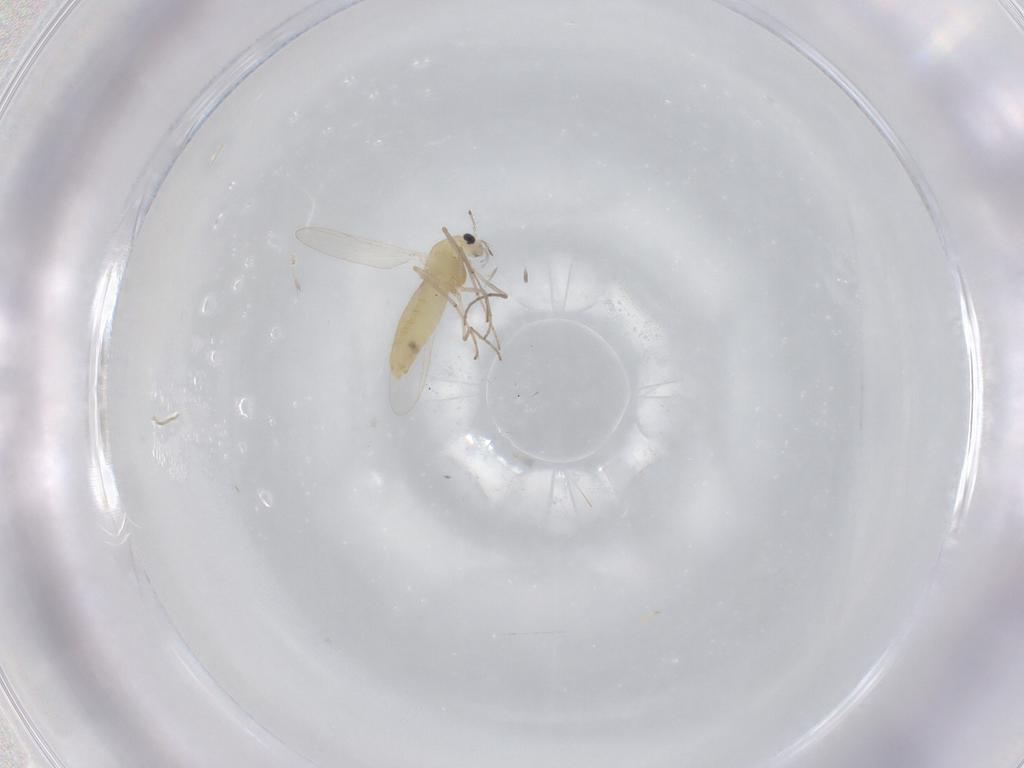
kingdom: Animalia
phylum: Arthropoda
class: Insecta
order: Diptera
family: Chironomidae
